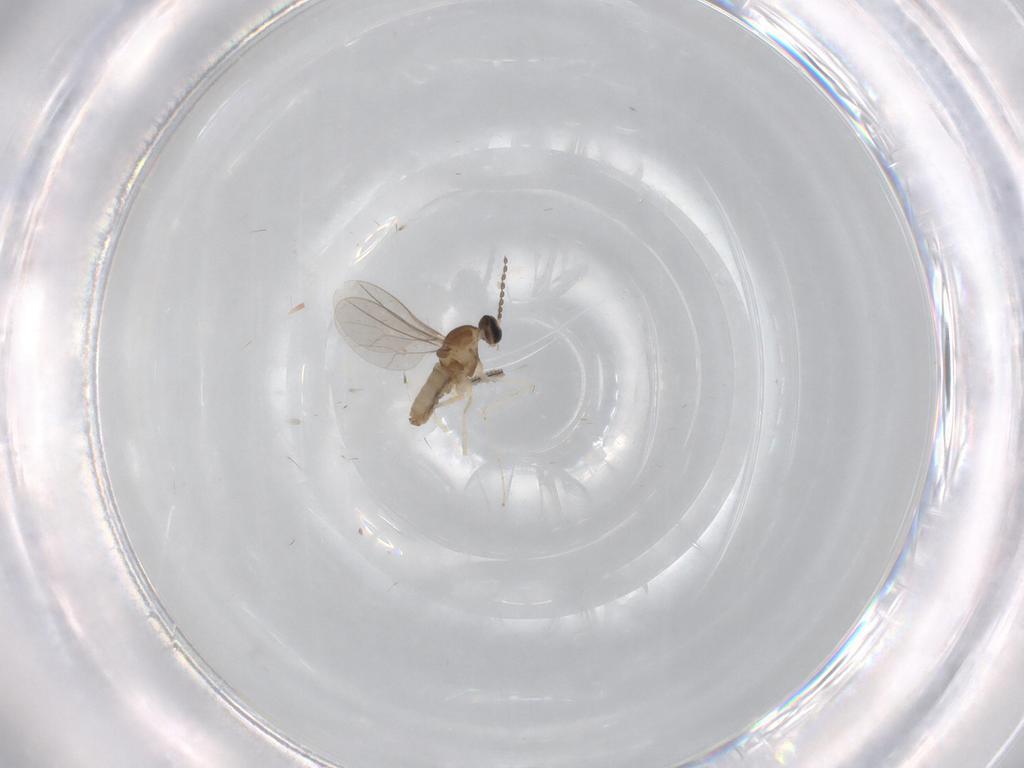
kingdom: Animalia
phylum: Arthropoda
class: Insecta
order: Diptera
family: Cecidomyiidae
